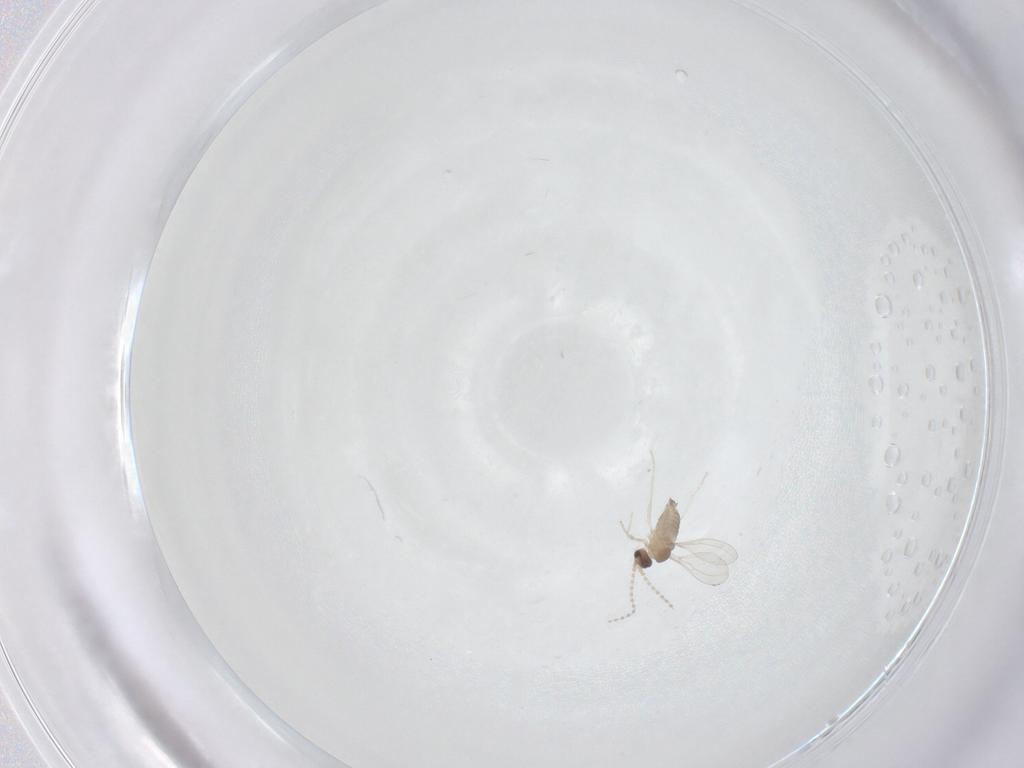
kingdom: Animalia
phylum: Arthropoda
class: Insecta
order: Diptera
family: Cecidomyiidae
